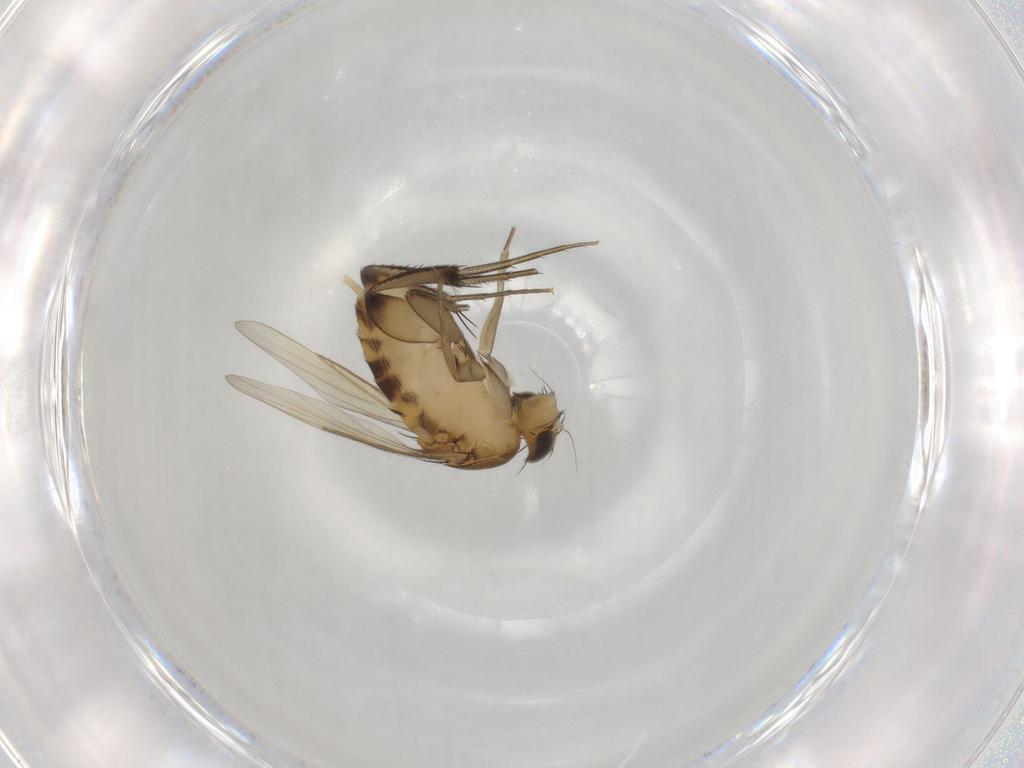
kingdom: Animalia
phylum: Arthropoda
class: Insecta
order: Diptera
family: Phoridae
